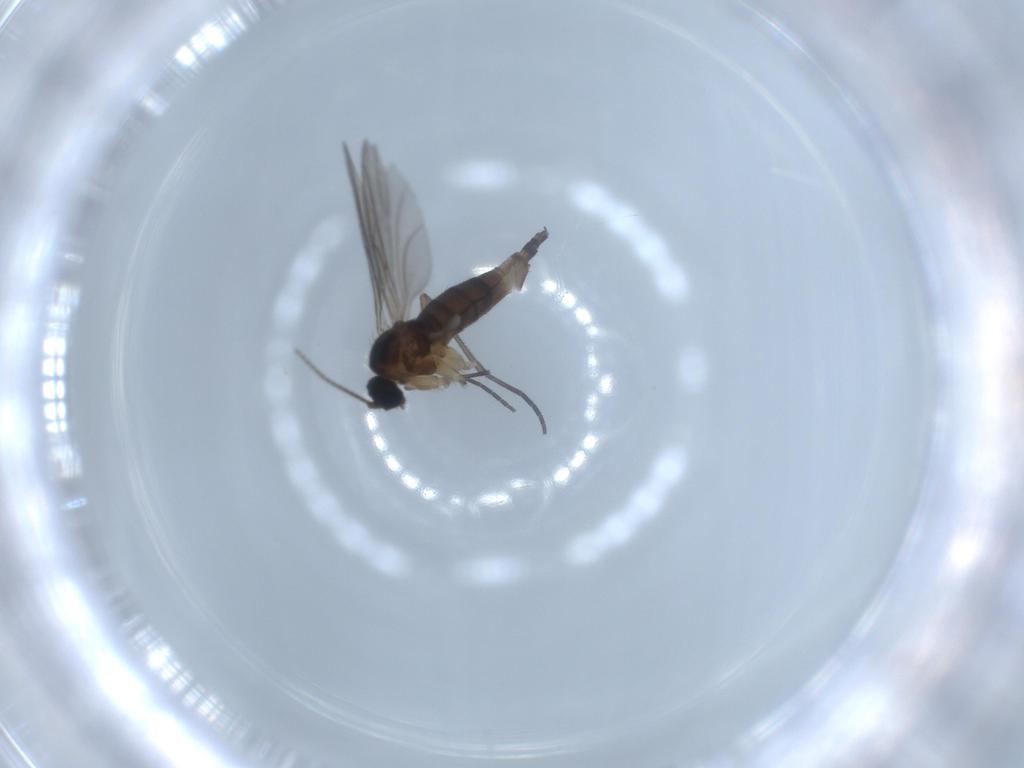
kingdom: Animalia
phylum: Arthropoda
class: Insecta
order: Diptera
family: Sciaridae
